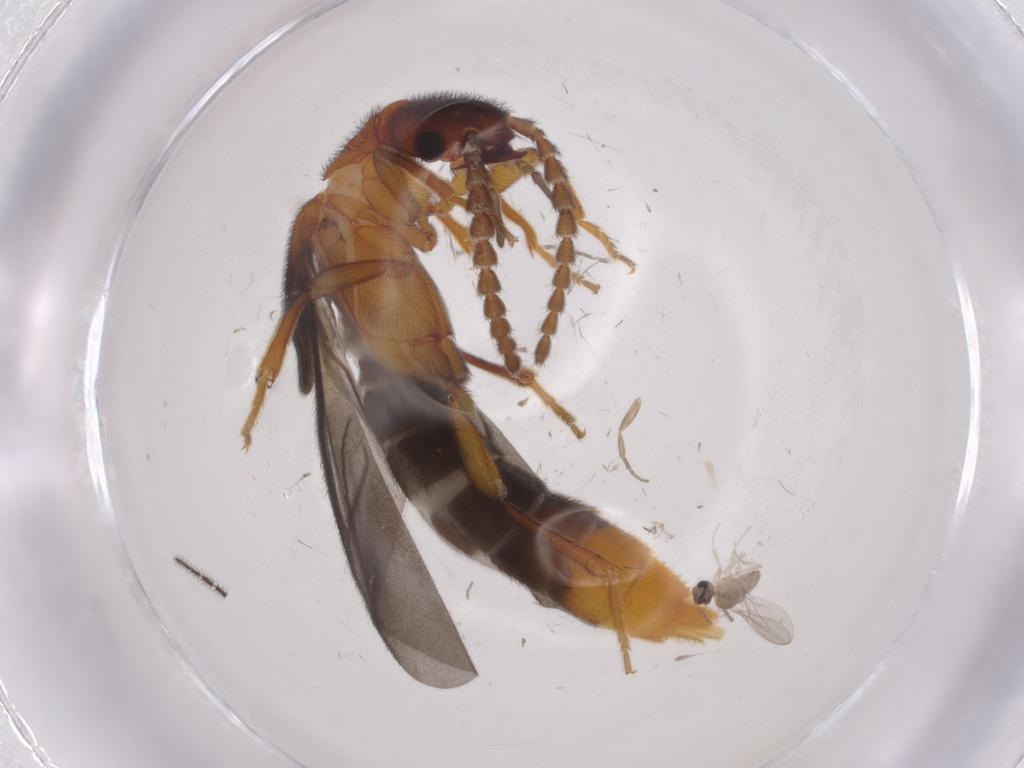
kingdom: Animalia
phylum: Arthropoda
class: Insecta
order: Diptera
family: Cecidomyiidae
